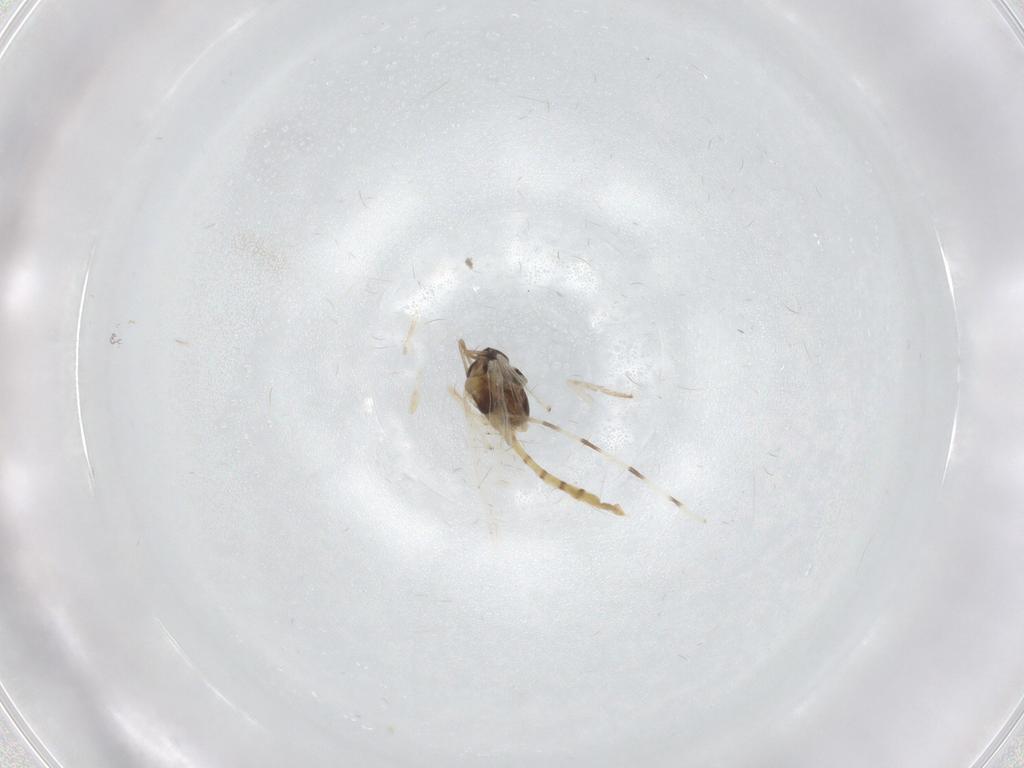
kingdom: Animalia
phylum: Arthropoda
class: Insecta
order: Diptera
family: Chironomidae
